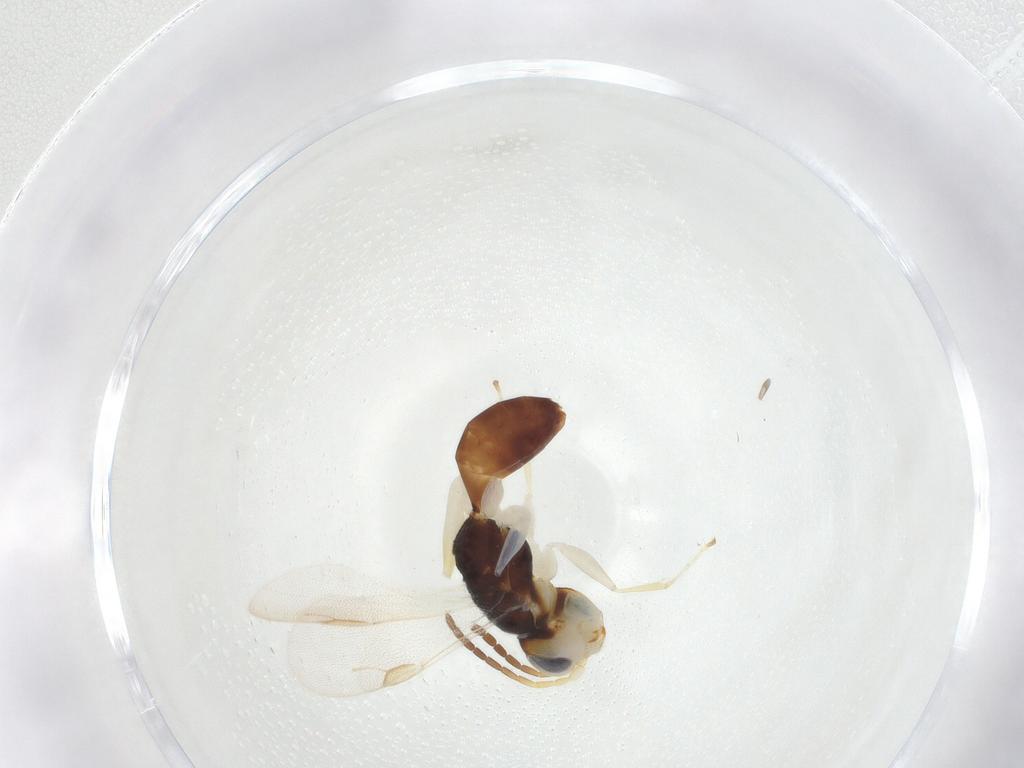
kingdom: Animalia
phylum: Arthropoda
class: Insecta
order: Hymenoptera
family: Dryinidae
